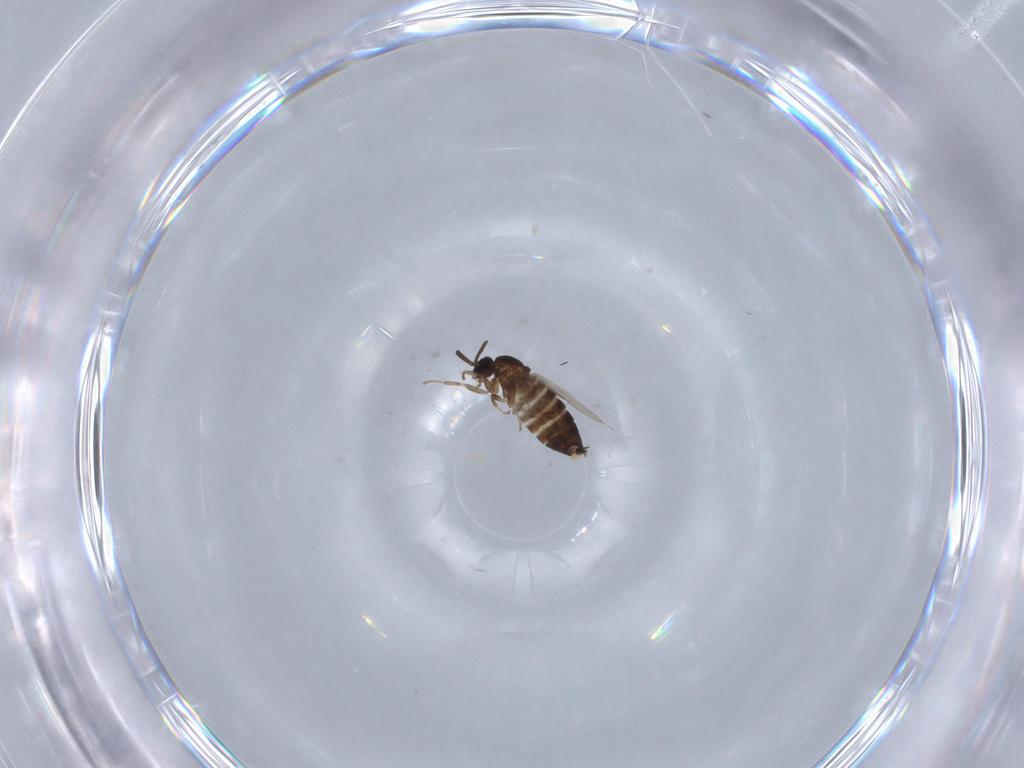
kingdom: Animalia
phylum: Arthropoda
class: Insecta
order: Diptera
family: Scatopsidae
